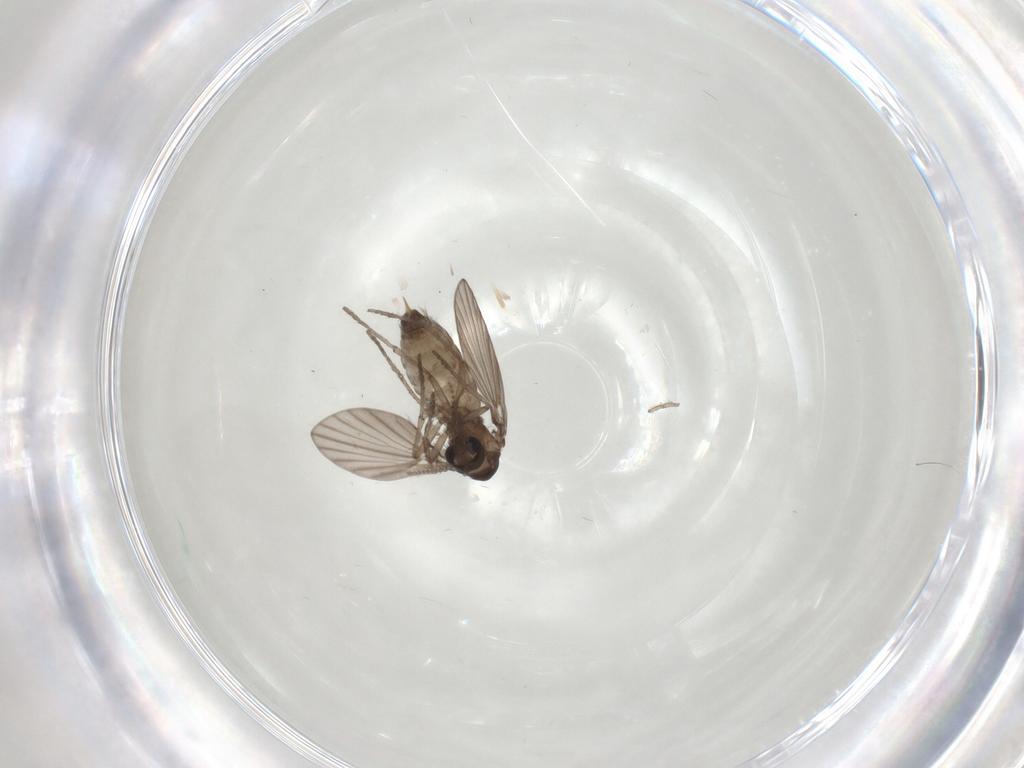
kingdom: Animalia
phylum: Arthropoda
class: Insecta
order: Diptera
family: Psychodidae
